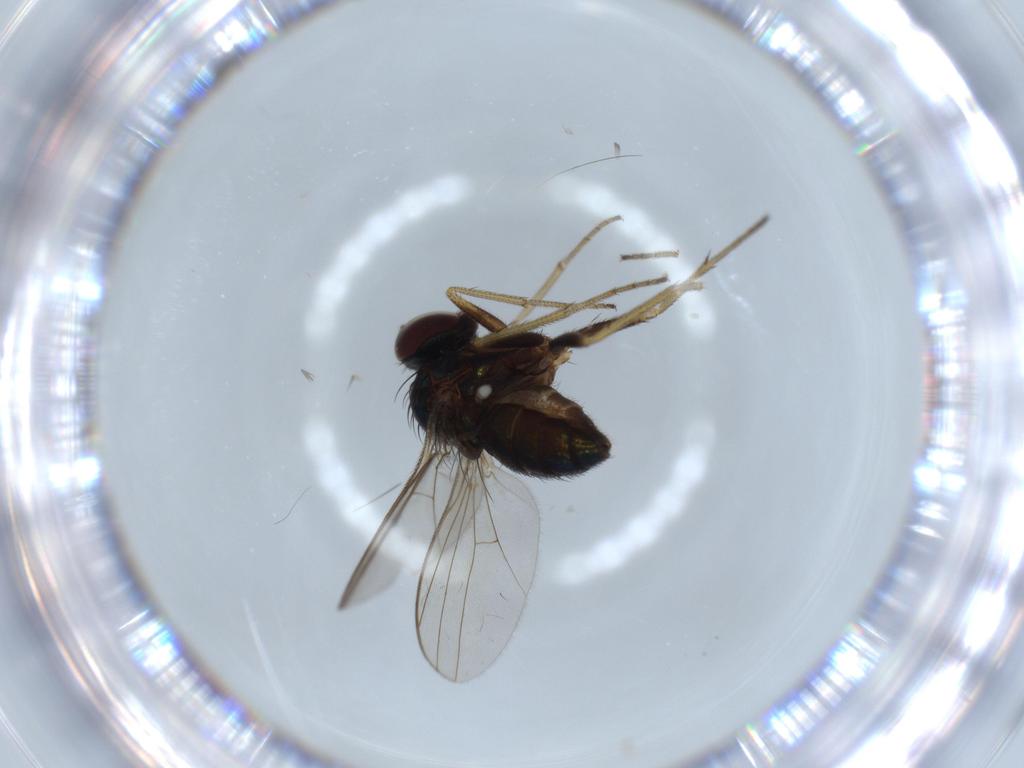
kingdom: Animalia
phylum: Arthropoda
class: Insecta
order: Diptera
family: Dolichopodidae
